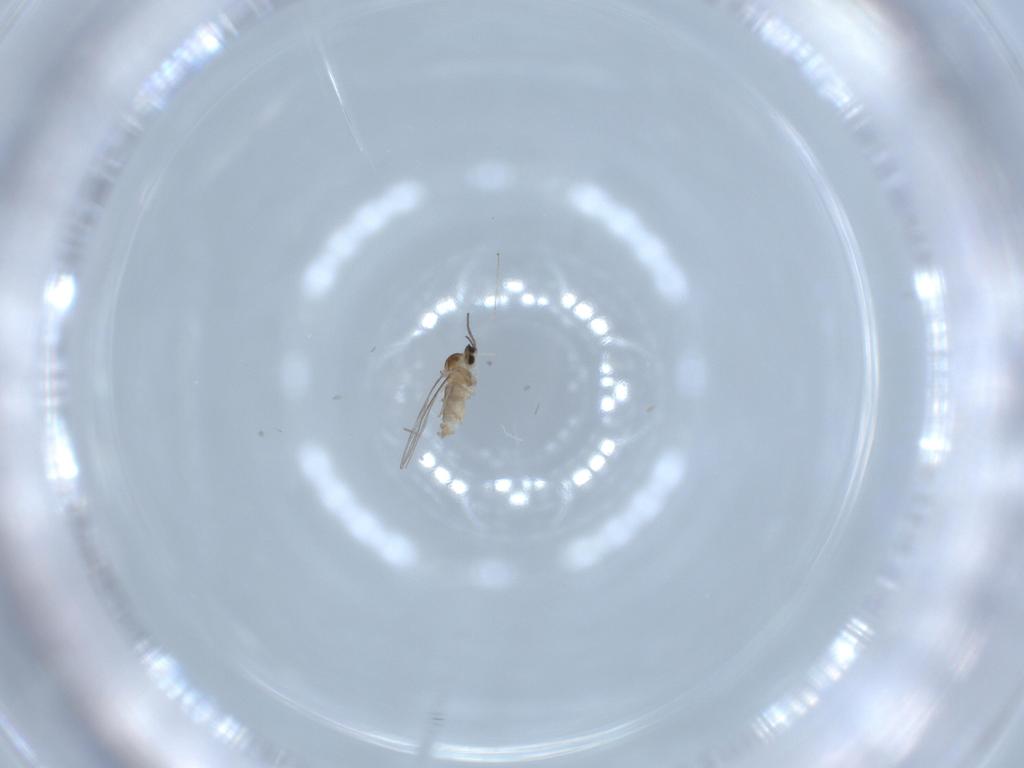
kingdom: Animalia
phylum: Arthropoda
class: Insecta
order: Diptera
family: Cecidomyiidae
